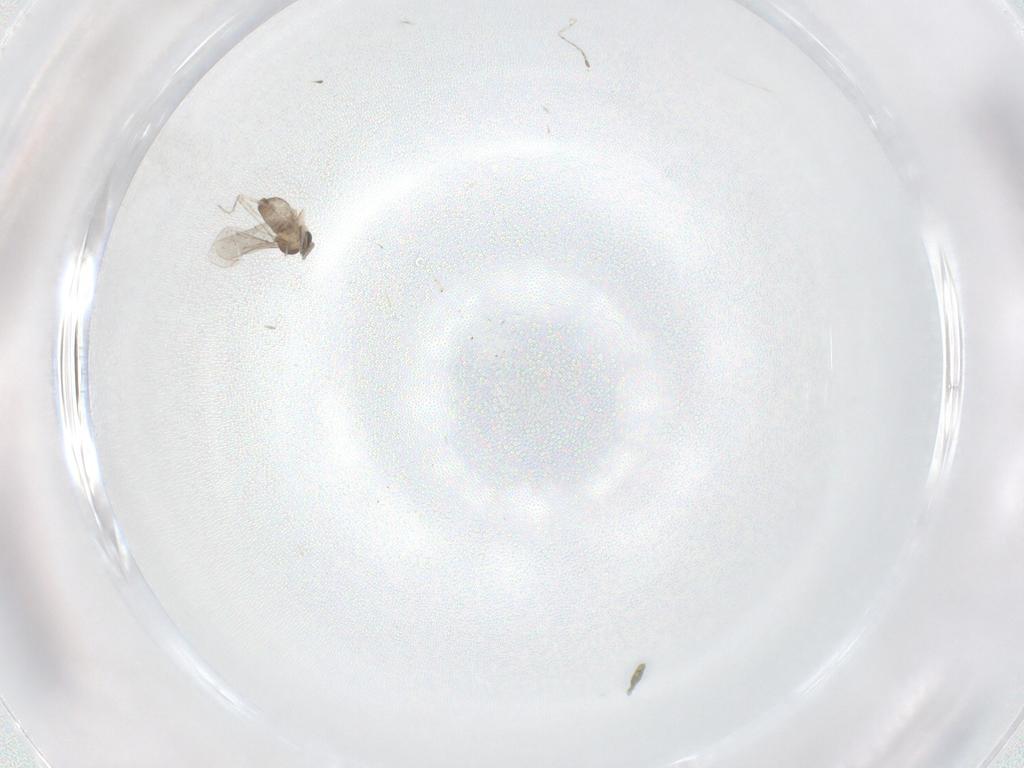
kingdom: Animalia
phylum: Arthropoda
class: Insecta
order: Diptera
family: Cecidomyiidae
